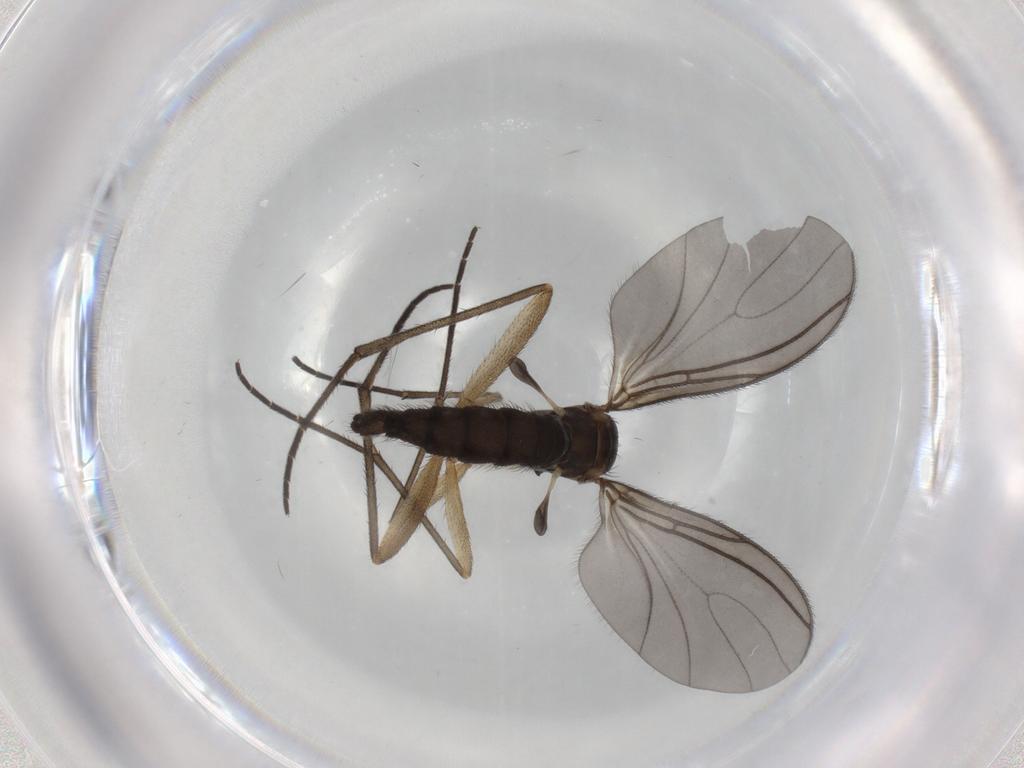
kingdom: Animalia
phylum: Arthropoda
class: Insecta
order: Diptera
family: Sciaridae
